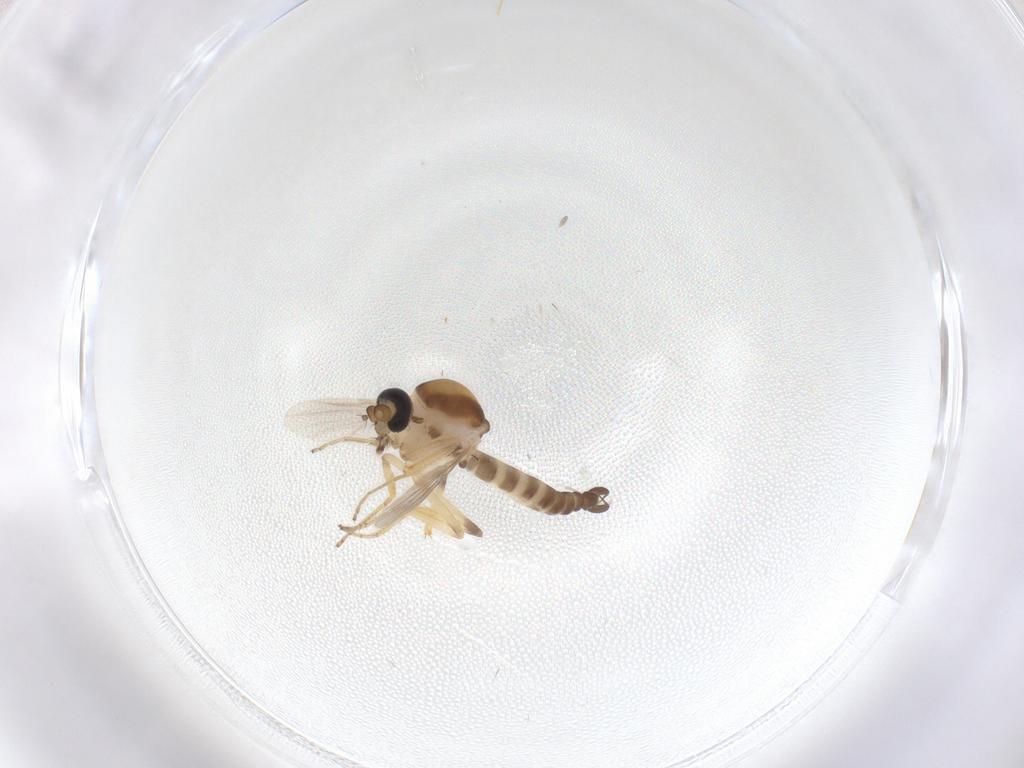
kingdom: Animalia
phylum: Arthropoda
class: Insecta
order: Diptera
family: Ceratopogonidae
